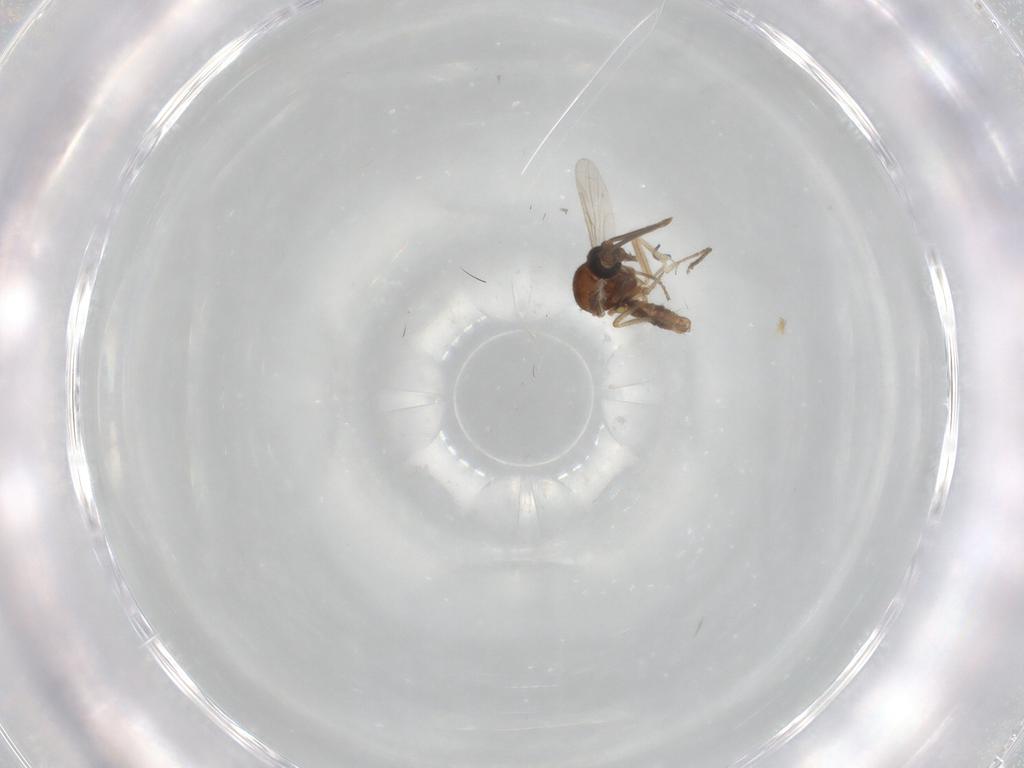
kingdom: Animalia
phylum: Arthropoda
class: Insecta
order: Diptera
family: Ceratopogonidae
